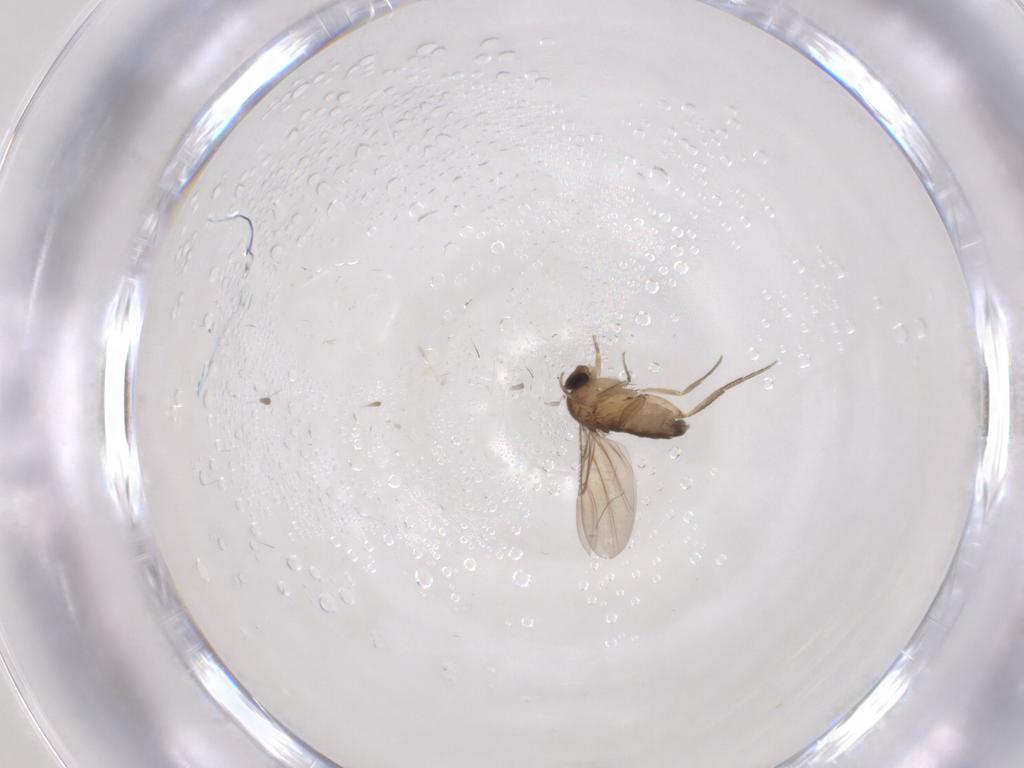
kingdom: Animalia
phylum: Arthropoda
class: Insecta
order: Diptera
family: Phoridae
